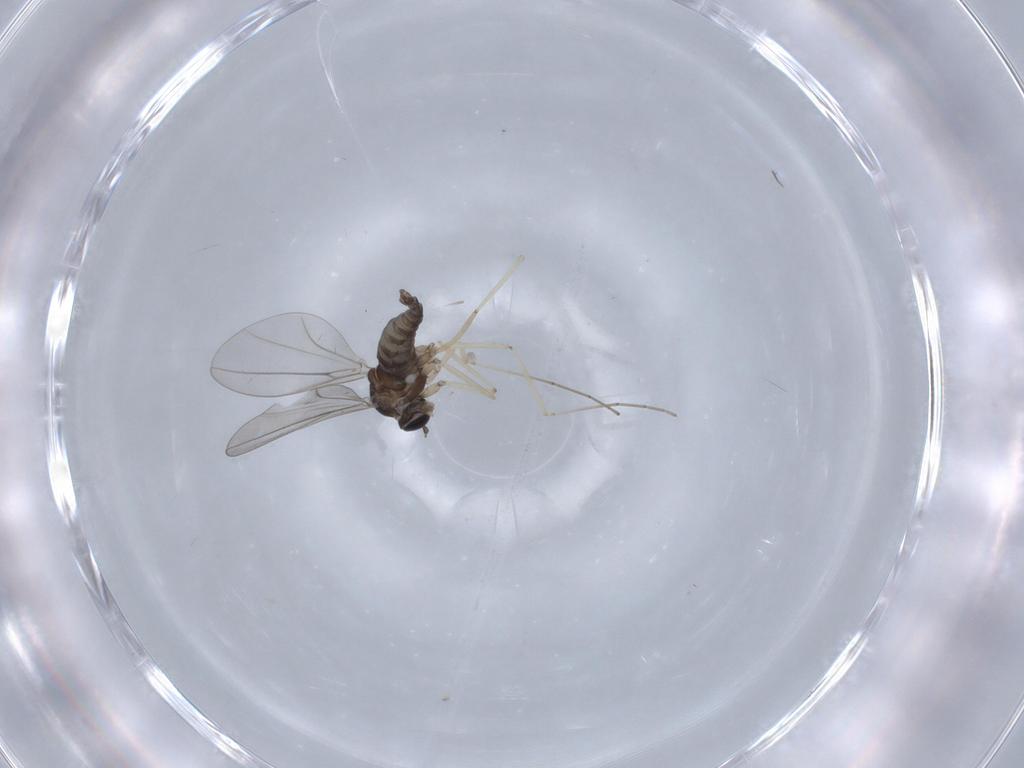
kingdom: Animalia
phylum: Arthropoda
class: Insecta
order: Diptera
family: Cecidomyiidae
